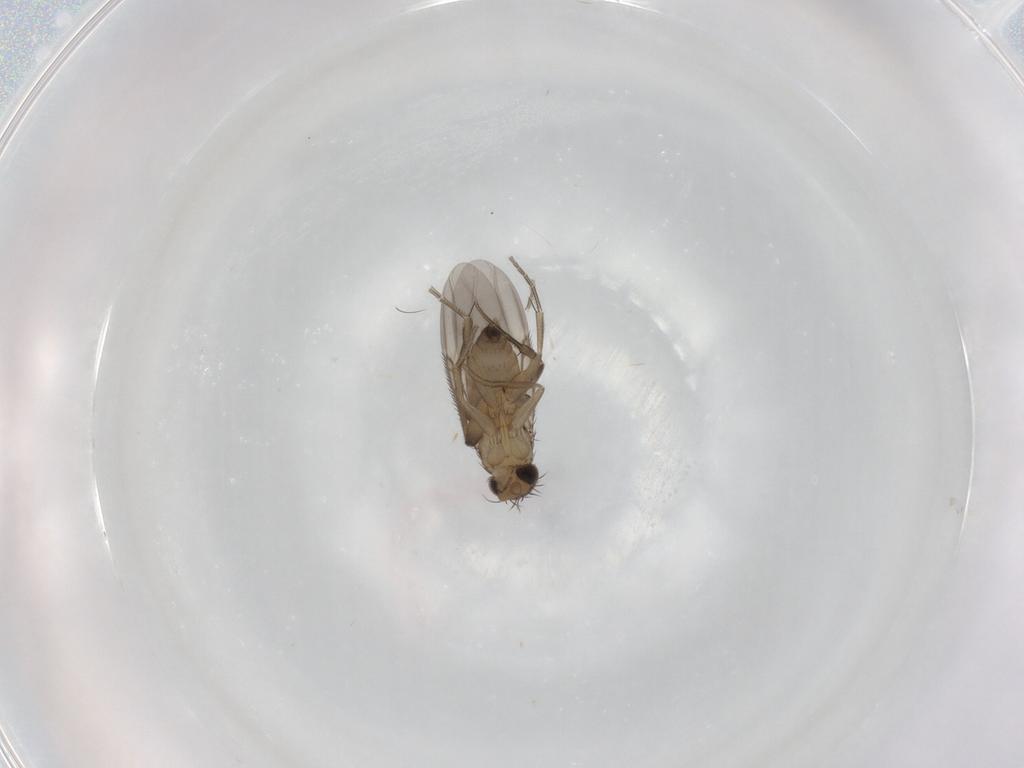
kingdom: Animalia
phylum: Arthropoda
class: Insecta
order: Diptera
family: Phoridae
